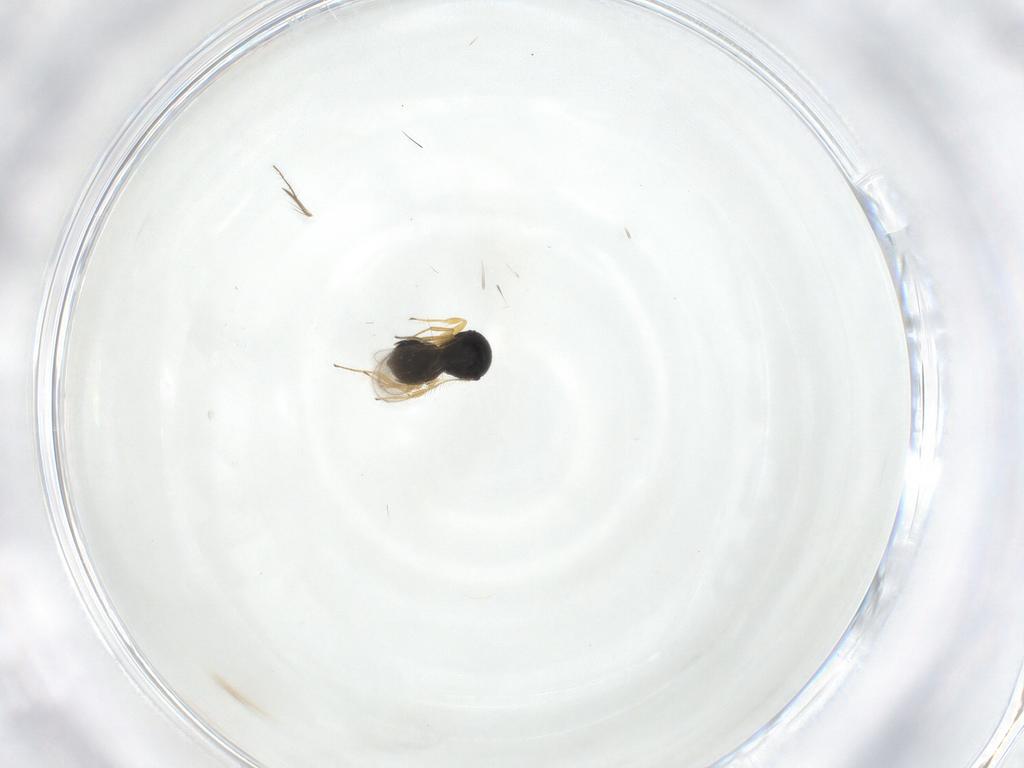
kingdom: Animalia
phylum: Arthropoda
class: Insecta
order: Hymenoptera
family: Scelionidae
